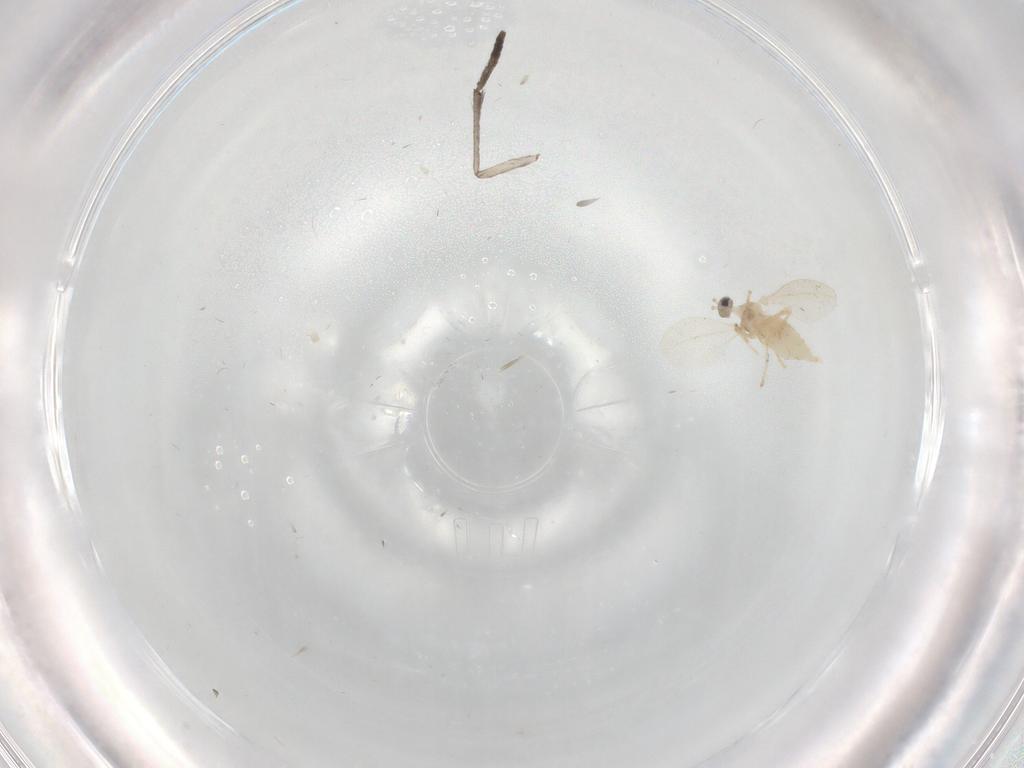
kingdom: Animalia
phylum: Arthropoda
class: Insecta
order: Diptera
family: Cecidomyiidae
